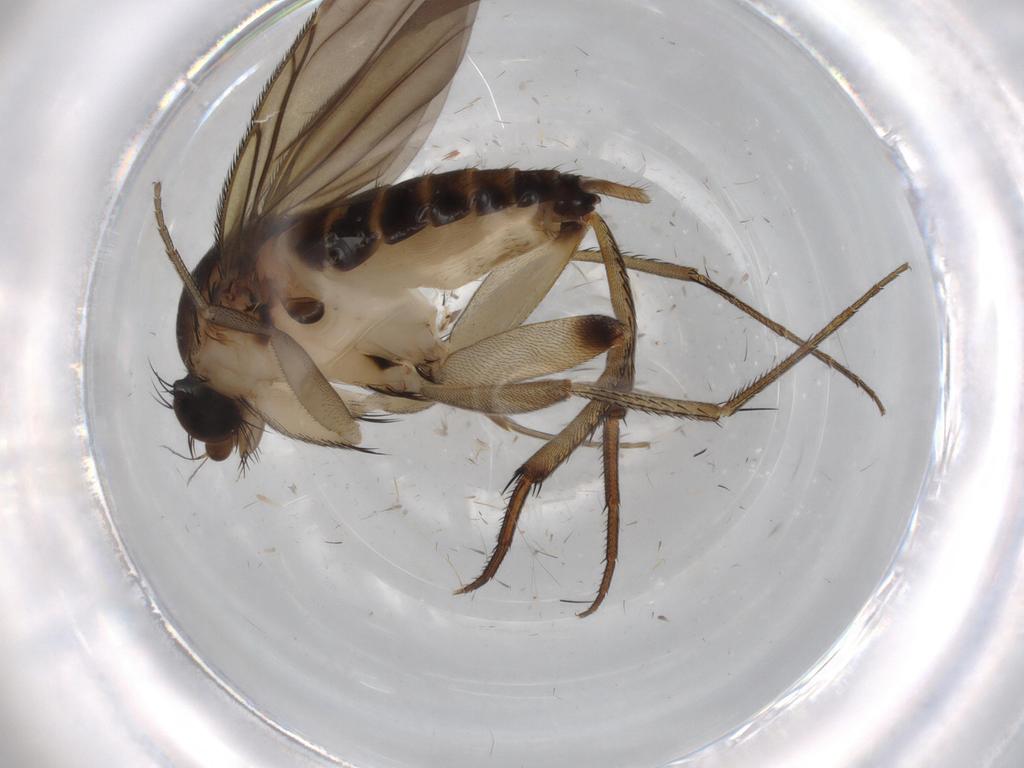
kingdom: Animalia
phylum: Arthropoda
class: Insecta
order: Diptera
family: Phoridae
